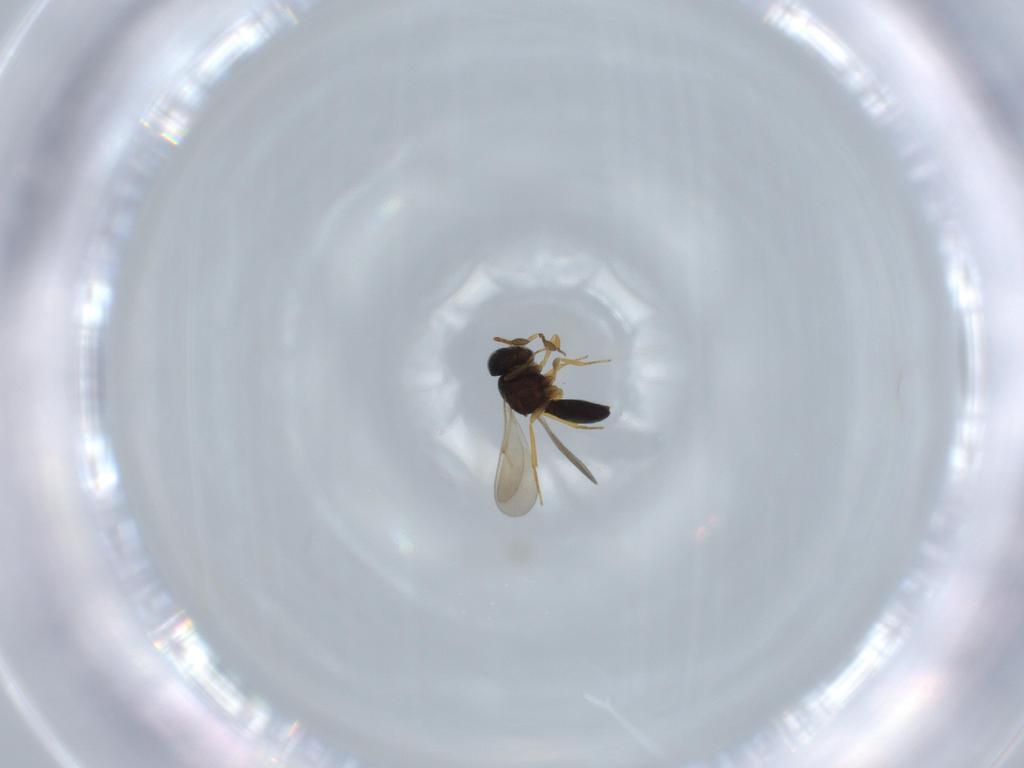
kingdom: Animalia
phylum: Arthropoda
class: Insecta
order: Hymenoptera
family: Scelionidae
